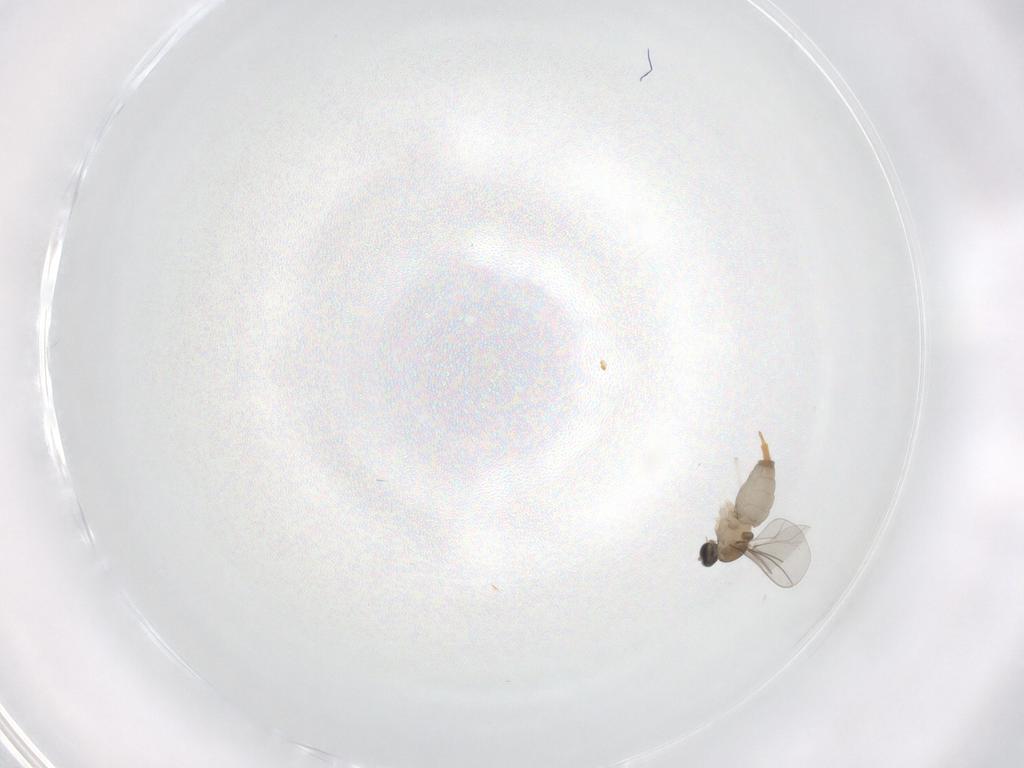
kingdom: Animalia
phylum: Arthropoda
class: Insecta
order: Diptera
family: Cecidomyiidae
